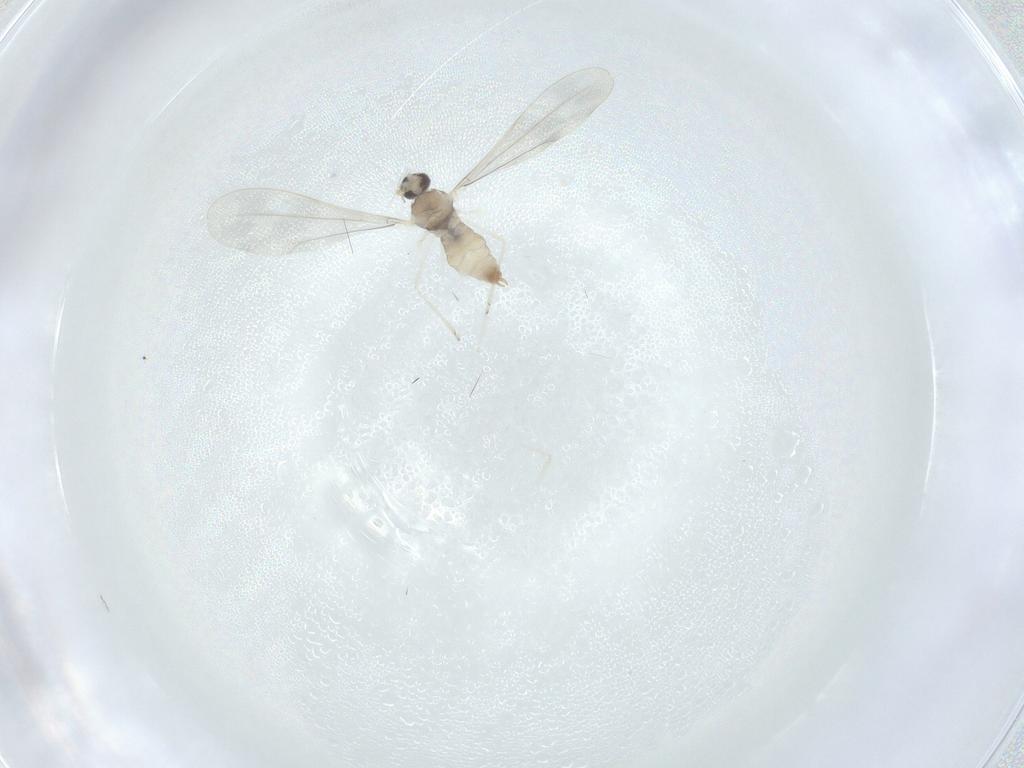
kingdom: Animalia
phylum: Arthropoda
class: Insecta
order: Diptera
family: Cecidomyiidae
